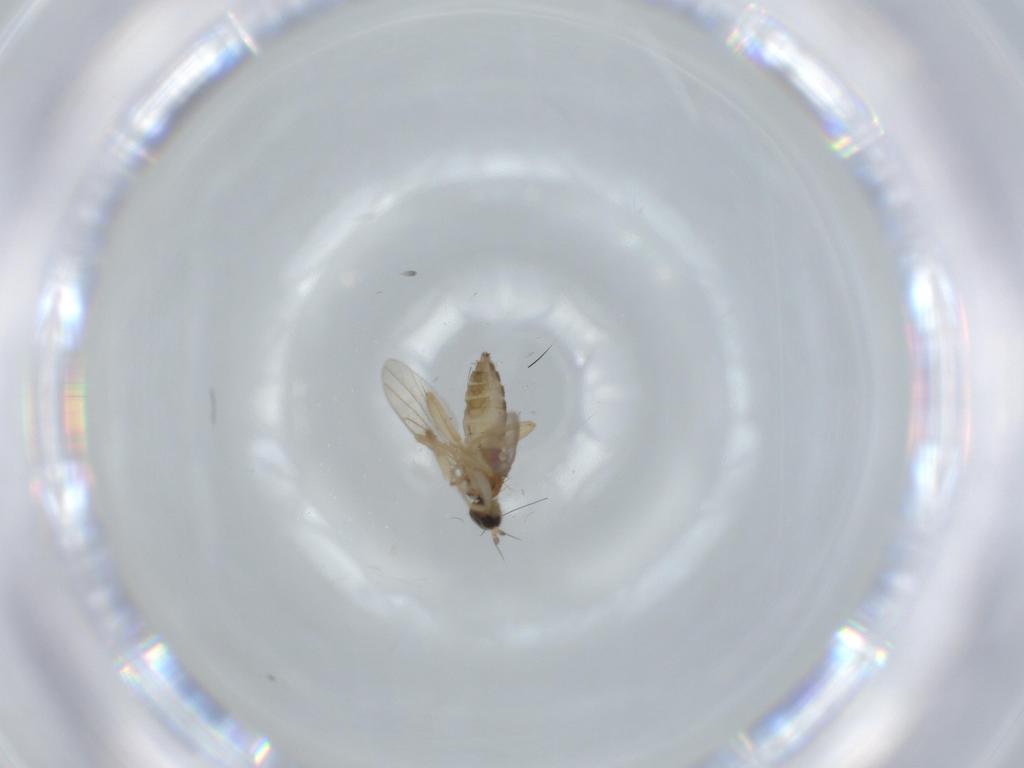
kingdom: Animalia
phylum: Arthropoda
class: Insecta
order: Diptera
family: Hybotidae
